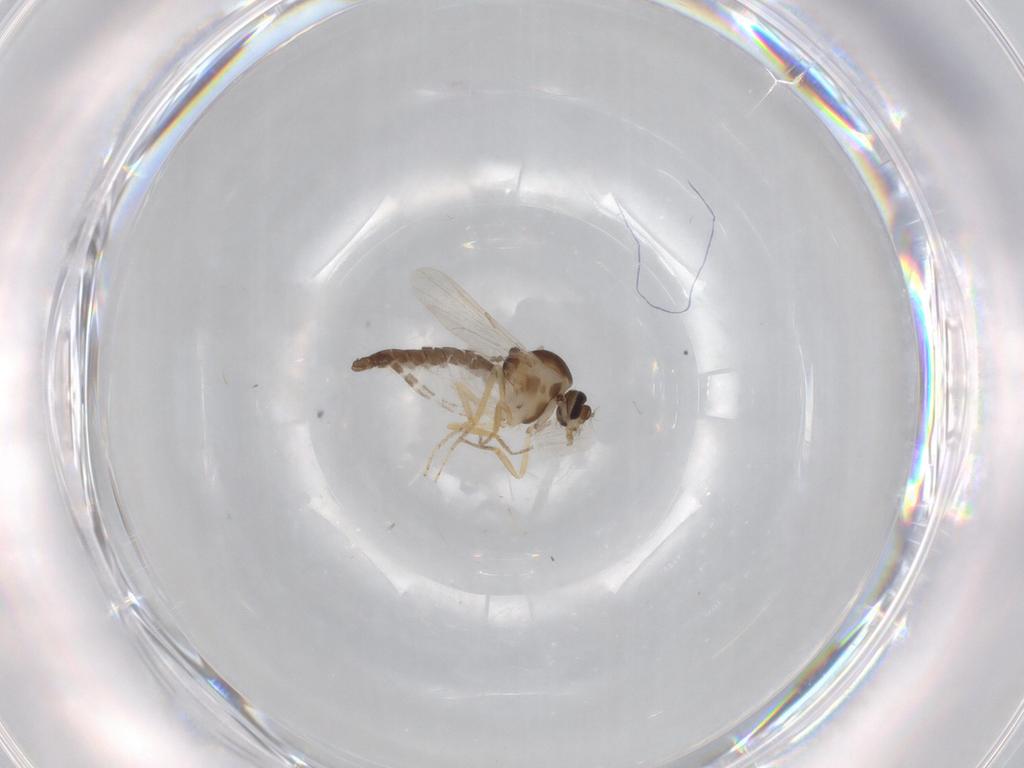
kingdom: Animalia
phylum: Arthropoda
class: Insecta
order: Diptera
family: Ceratopogonidae
